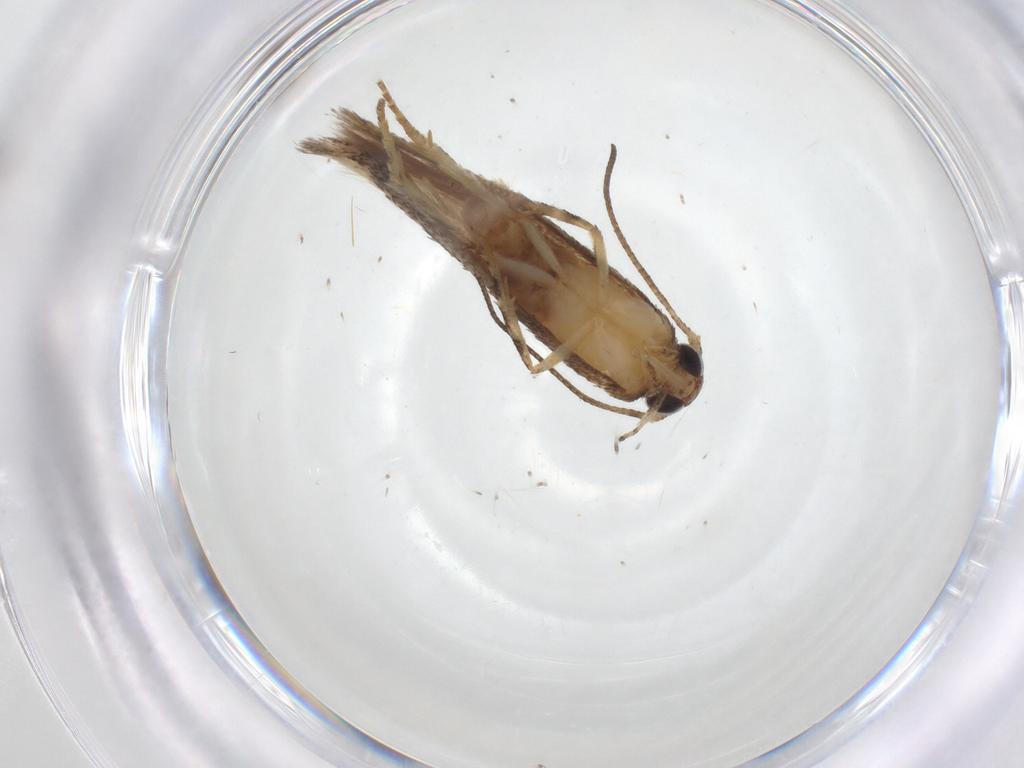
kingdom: Animalia
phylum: Arthropoda
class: Insecta
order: Lepidoptera
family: Gelechiidae
